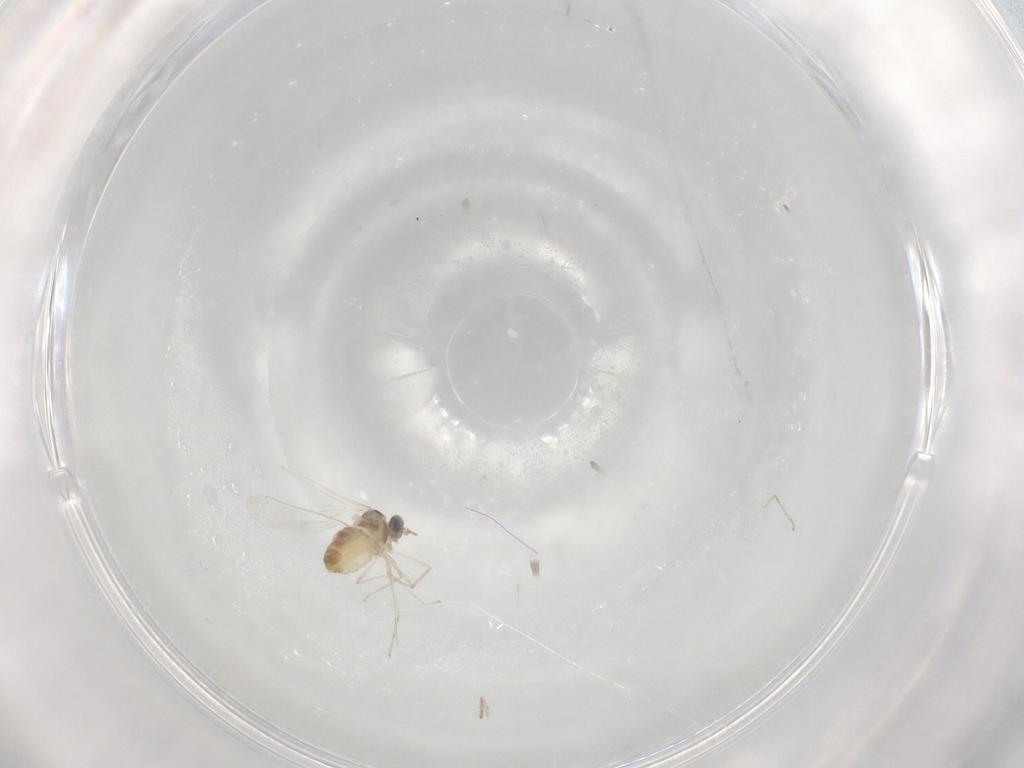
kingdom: Animalia
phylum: Arthropoda
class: Insecta
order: Diptera
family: Cecidomyiidae
